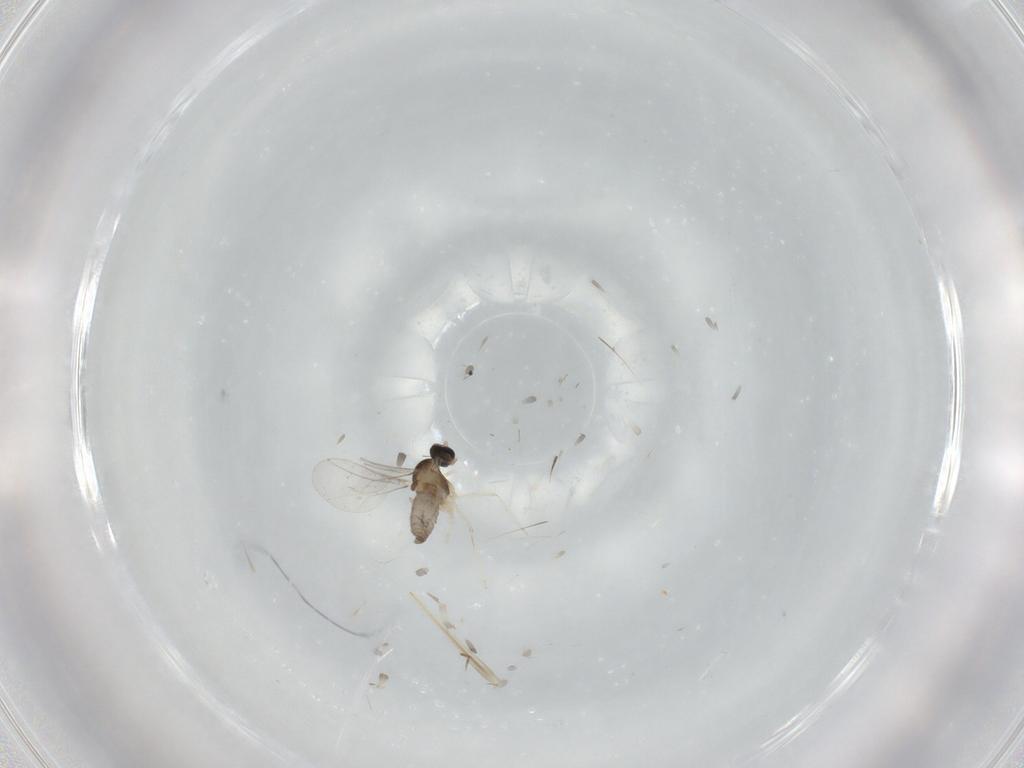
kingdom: Animalia
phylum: Arthropoda
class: Insecta
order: Diptera
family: Cecidomyiidae
